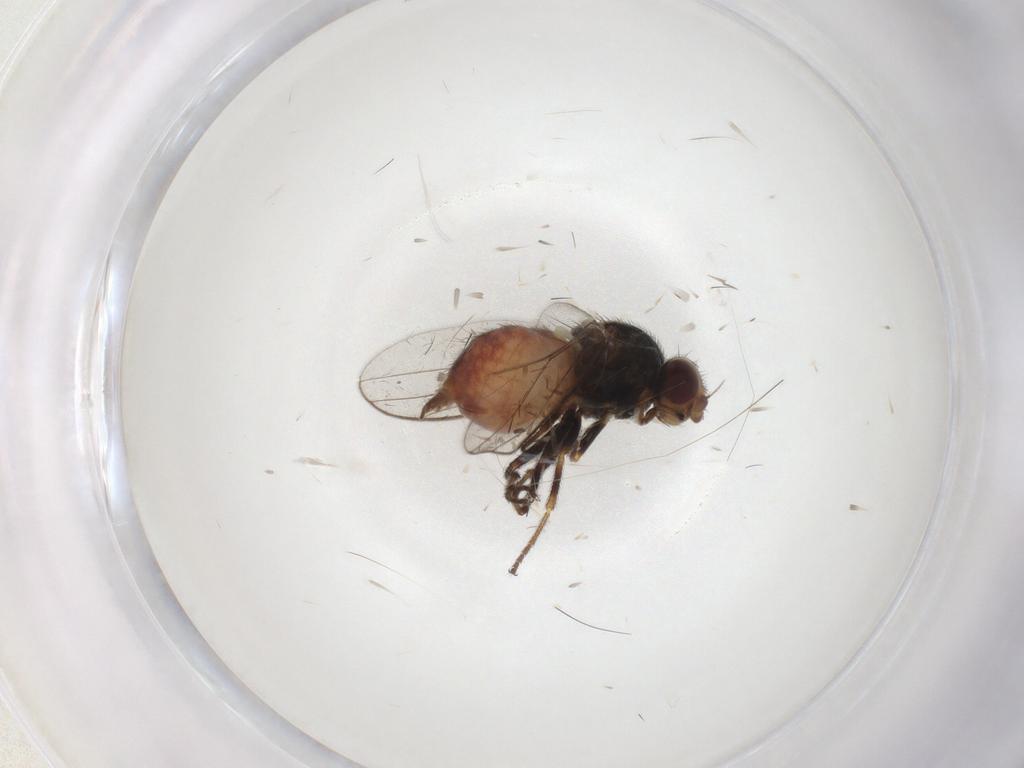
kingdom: Animalia
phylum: Arthropoda
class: Insecta
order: Diptera
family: Chloropidae
